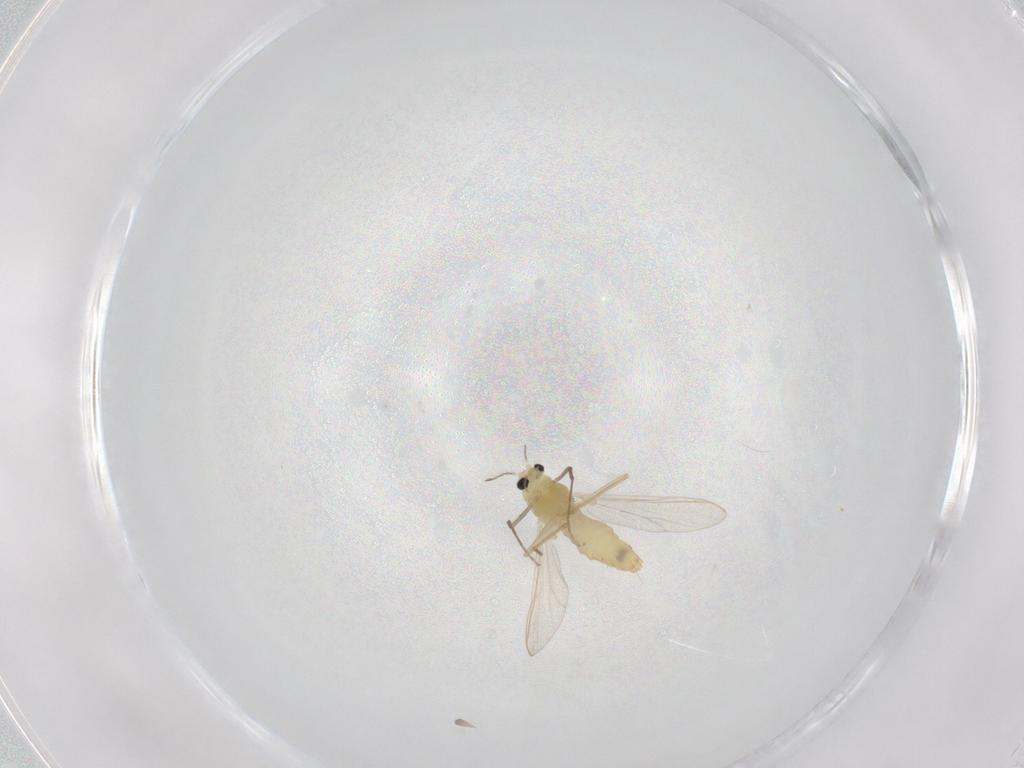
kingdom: Animalia
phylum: Arthropoda
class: Insecta
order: Diptera
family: Chironomidae
